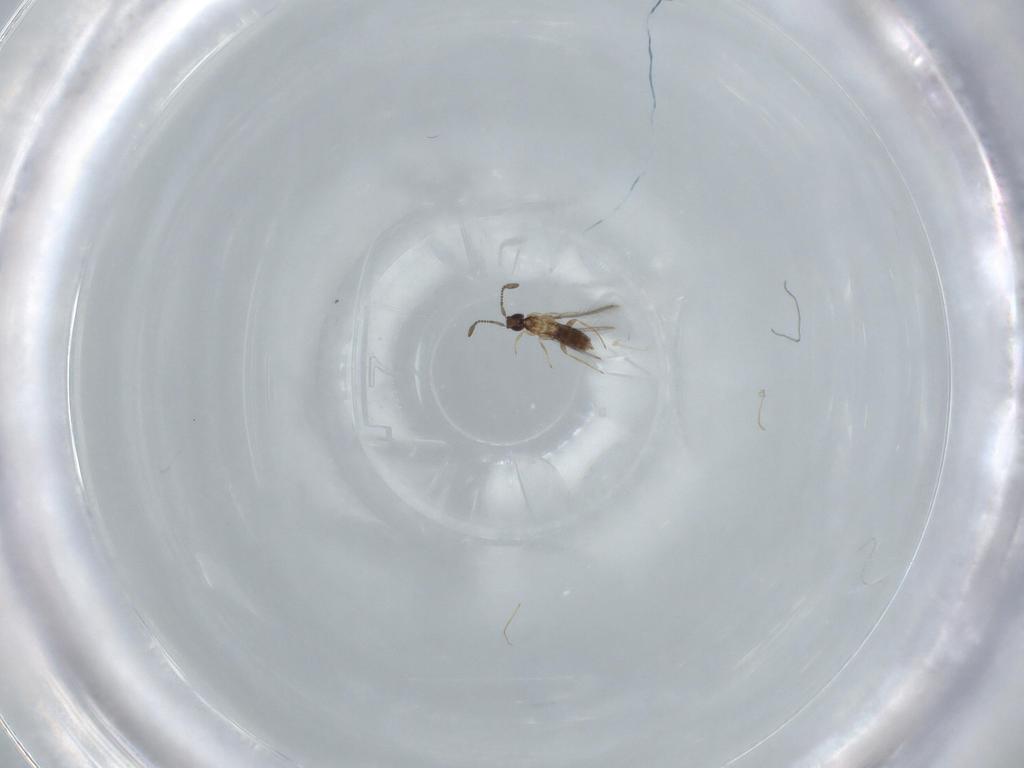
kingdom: Animalia
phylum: Arthropoda
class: Insecta
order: Hymenoptera
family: Mymaridae
